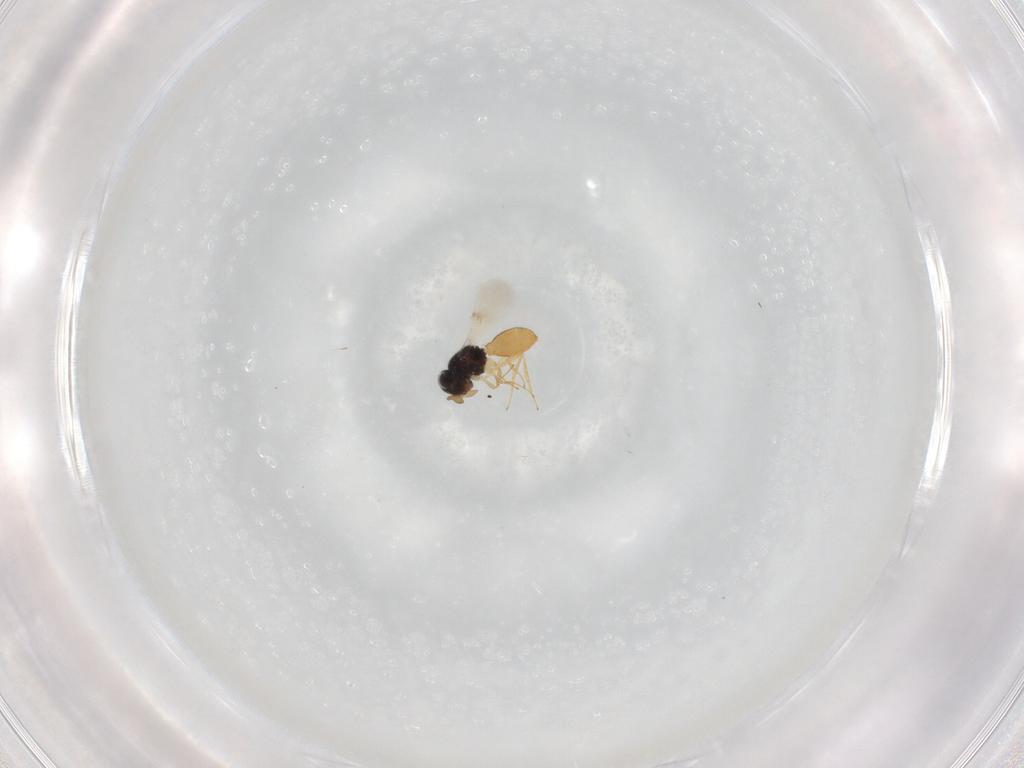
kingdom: Animalia
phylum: Arthropoda
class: Insecta
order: Hymenoptera
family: Scelionidae
